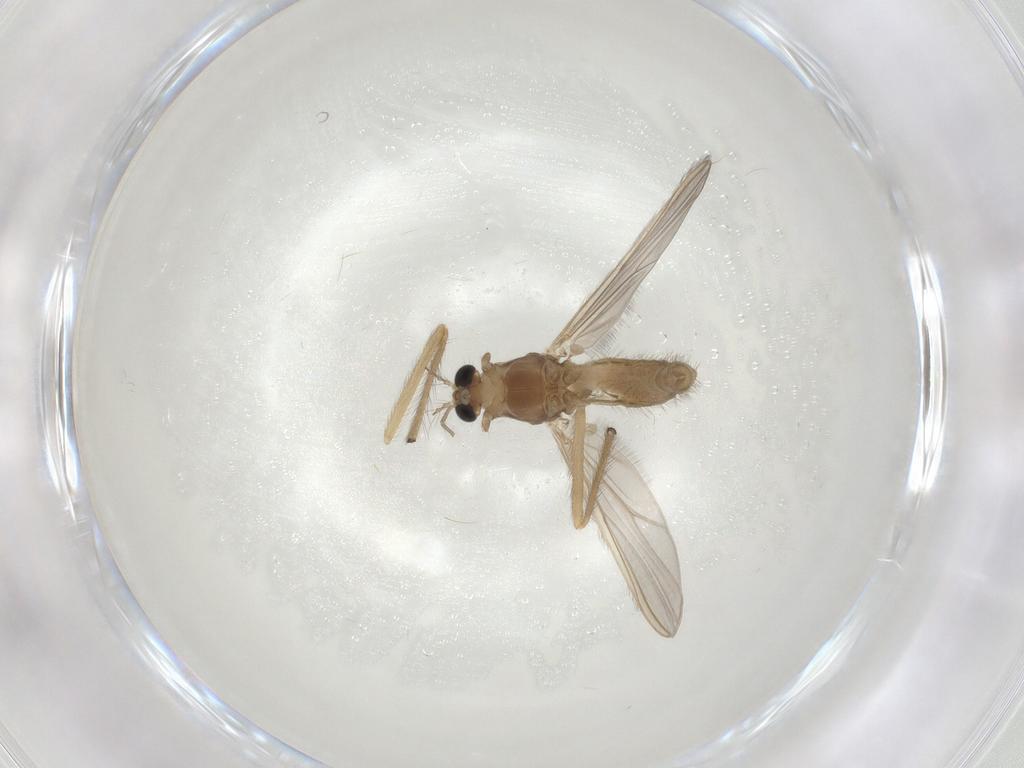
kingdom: Animalia
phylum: Arthropoda
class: Insecta
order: Diptera
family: Chironomidae
